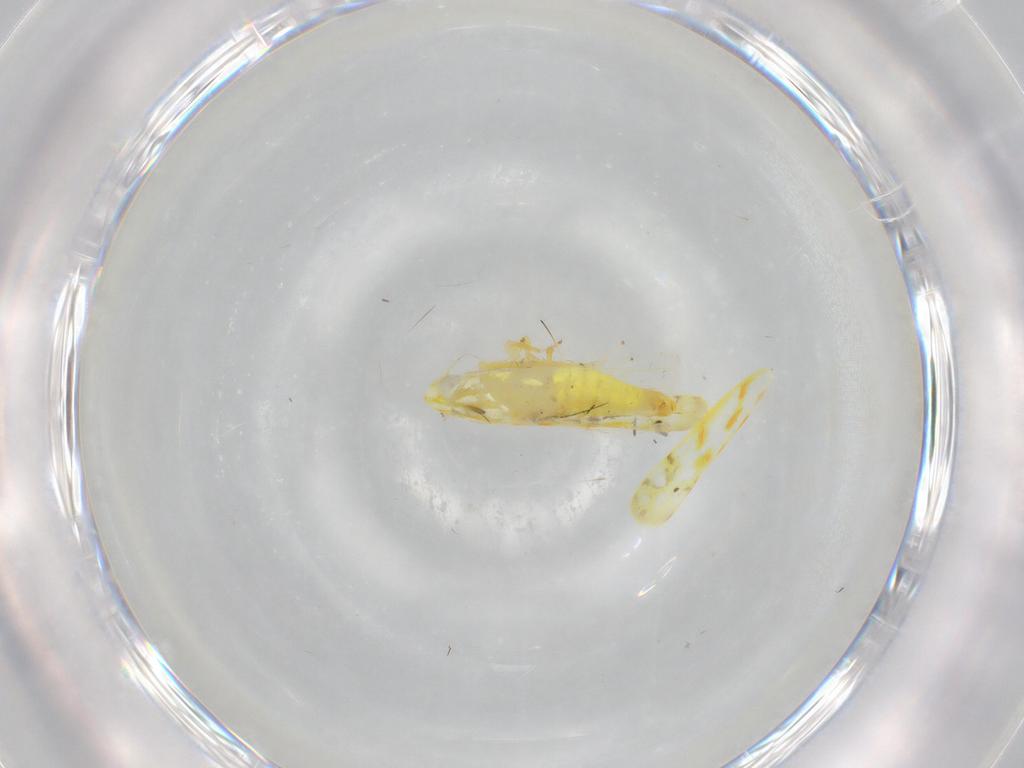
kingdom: Animalia
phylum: Arthropoda
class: Insecta
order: Hemiptera
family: Cicadellidae
